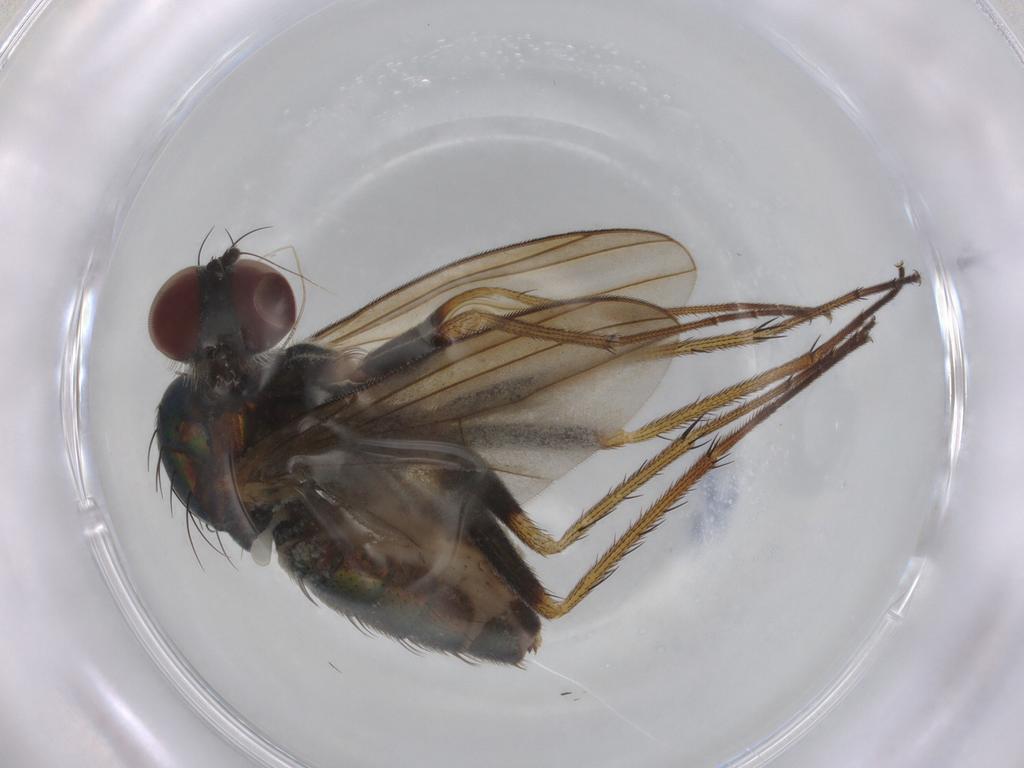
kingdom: Animalia
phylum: Arthropoda
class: Insecta
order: Diptera
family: Dolichopodidae
